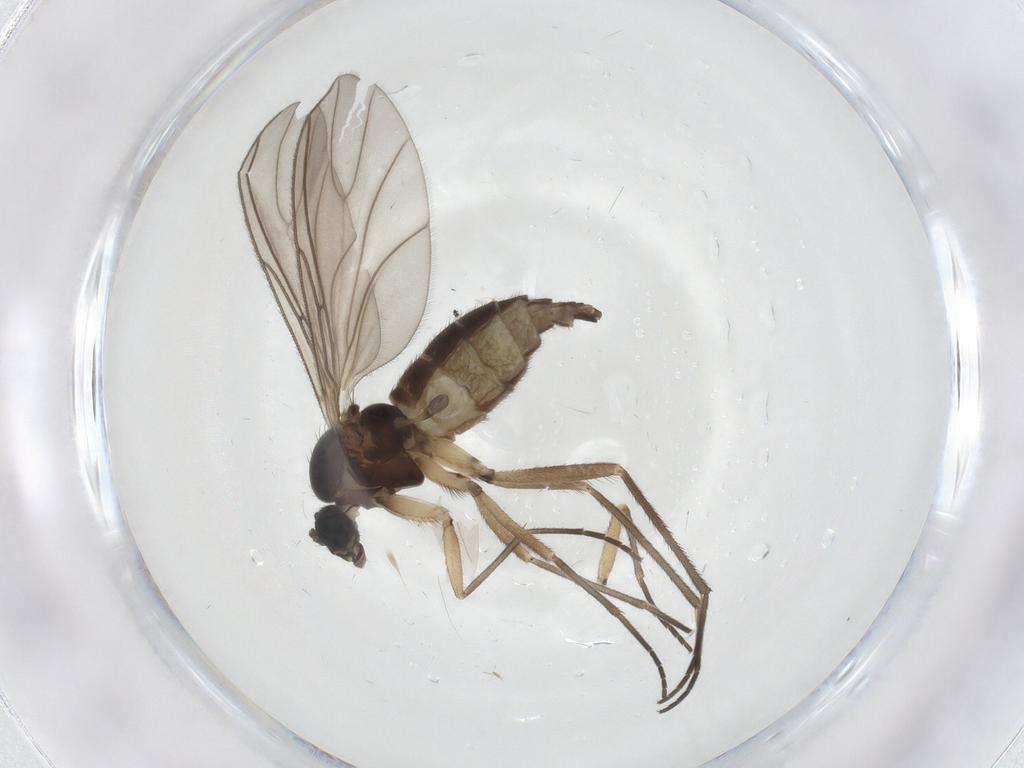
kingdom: Animalia
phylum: Arthropoda
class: Insecta
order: Diptera
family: Sciaridae
